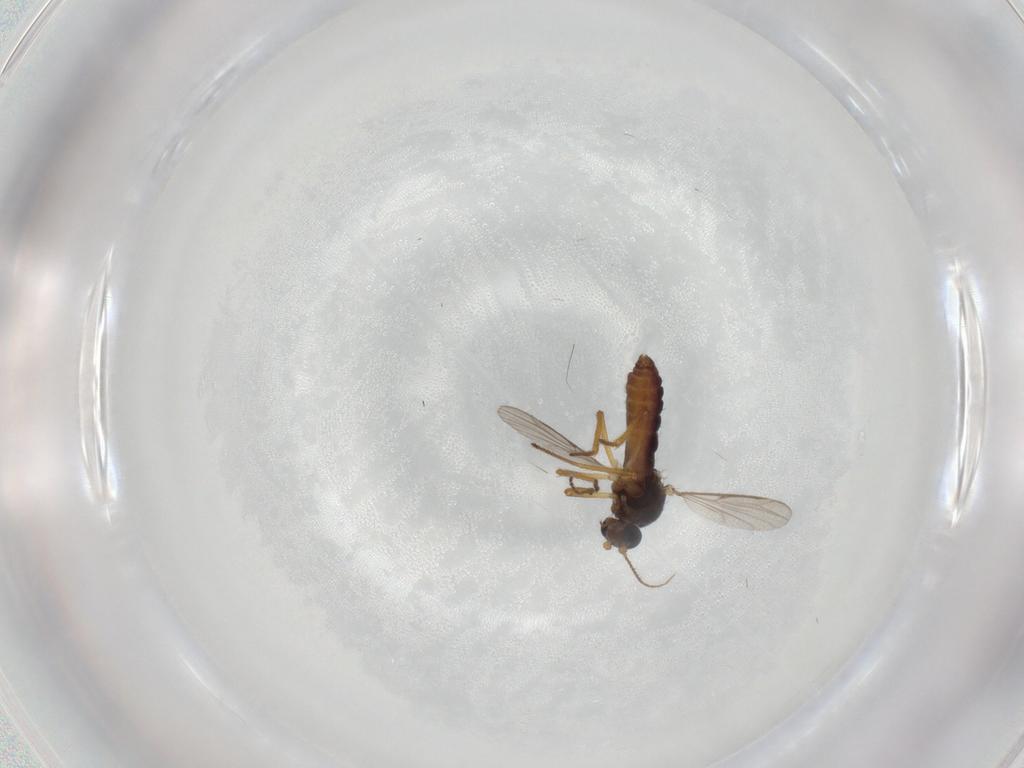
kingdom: Animalia
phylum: Arthropoda
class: Insecta
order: Diptera
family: Ceratopogonidae
